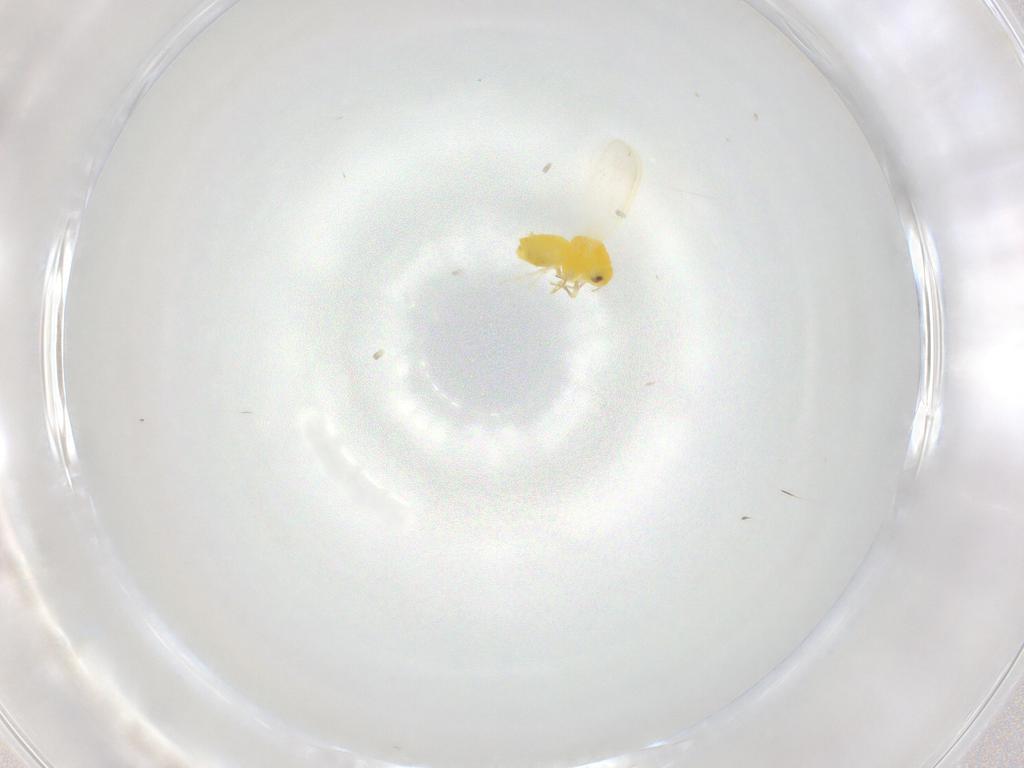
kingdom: Animalia
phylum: Arthropoda
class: Insecta
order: Hemiptera
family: Aleyrodidae
